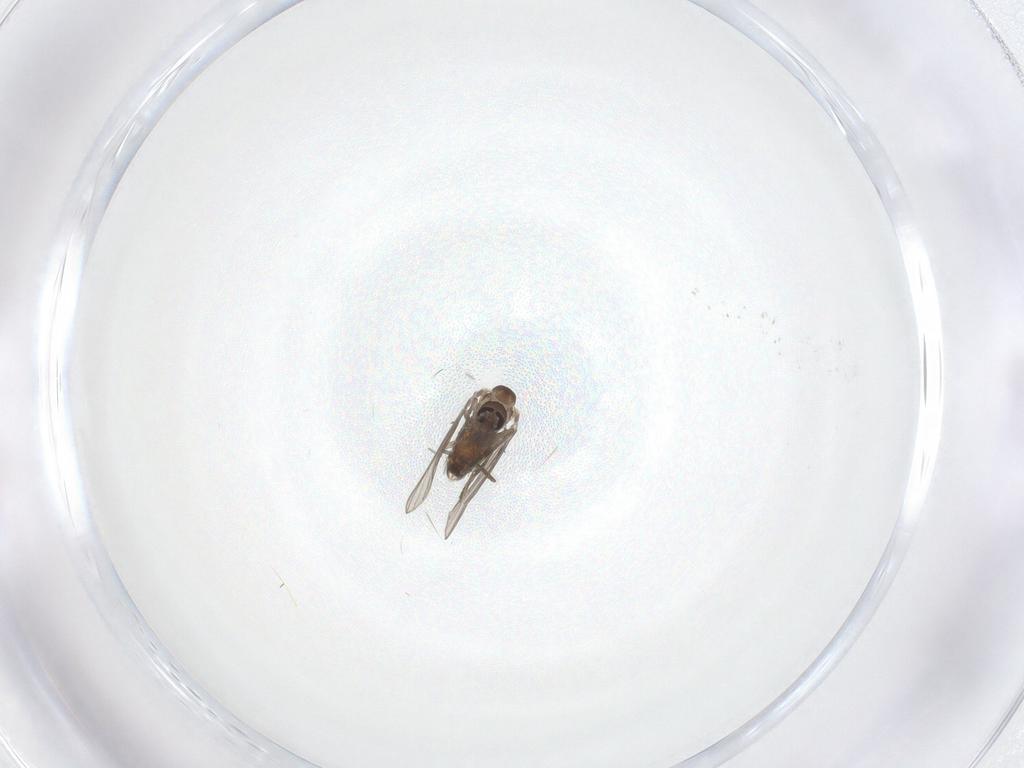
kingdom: Animalia
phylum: Arthropoda
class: Insecta
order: Diptera
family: Psychodidae
